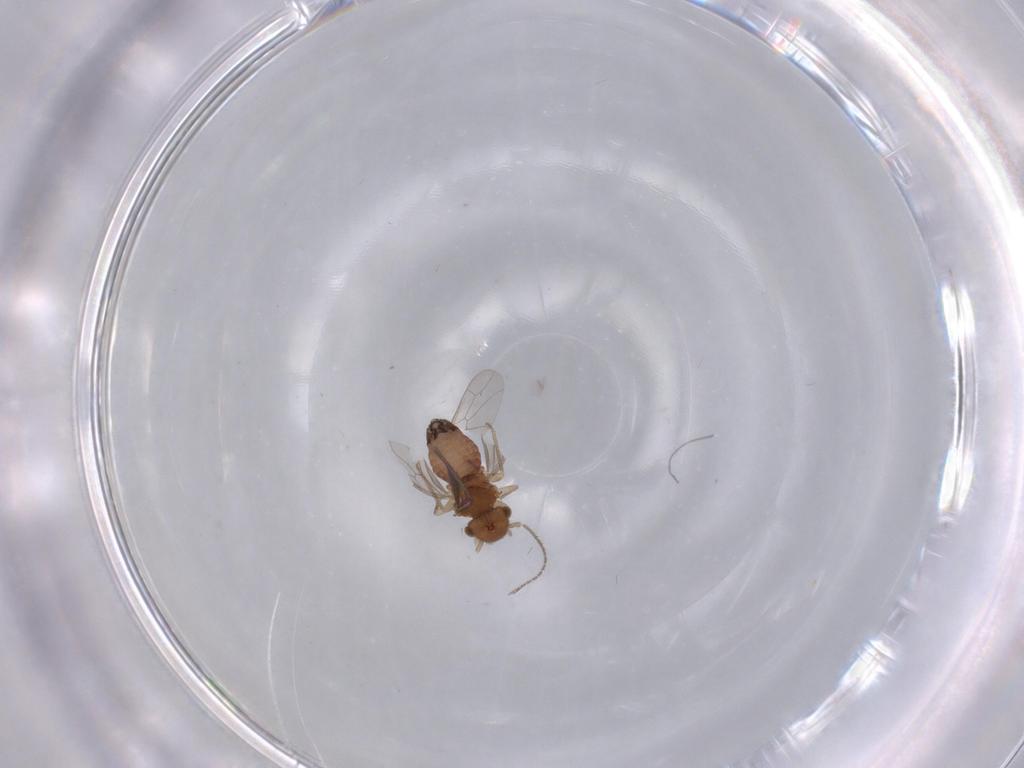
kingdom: Animalia
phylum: Arthropoda
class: Insecta
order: Psocodea
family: Ectopsocidae
